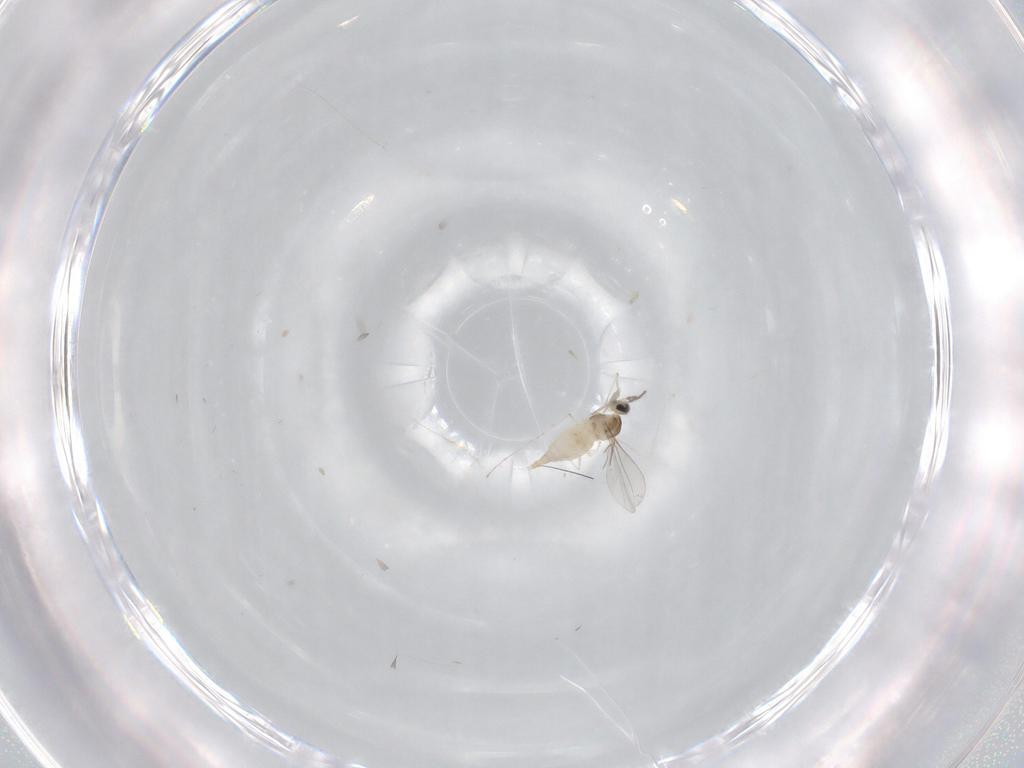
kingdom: Animalia
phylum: Arthropoda
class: Insecta
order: Diptera
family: Cecidomyiidae
